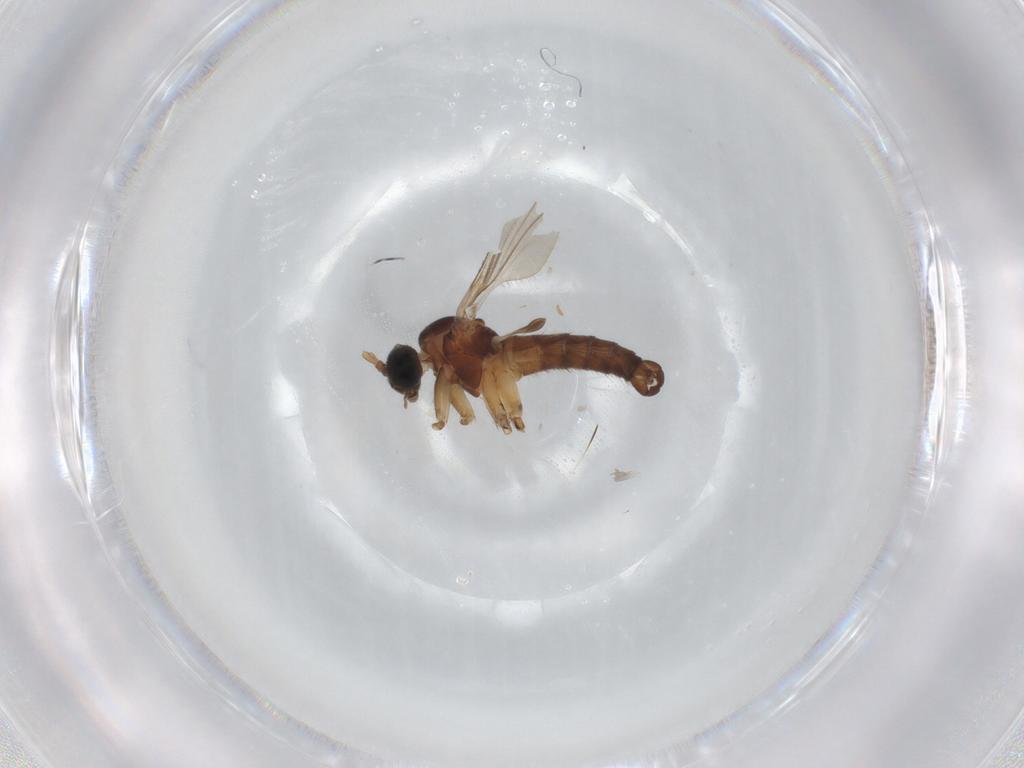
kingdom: Animalia
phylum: Arthropoda
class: Insecta
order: Diptera
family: Sciaridae
